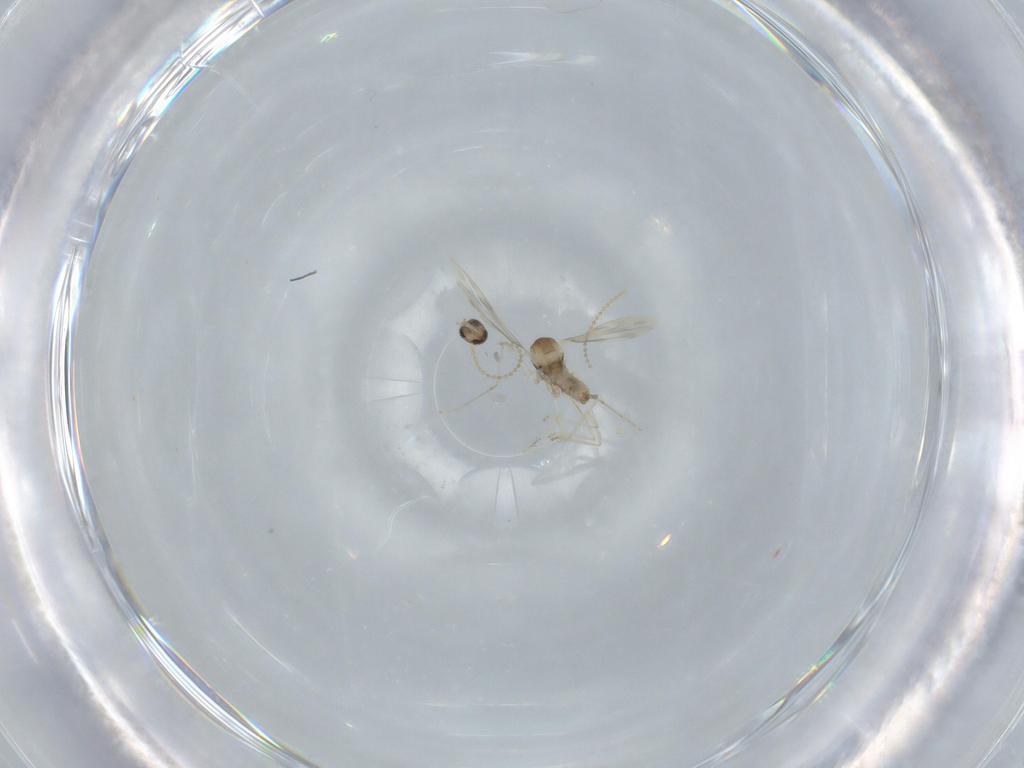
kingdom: Animalia
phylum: Arthropoda
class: Insecta
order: Diptera
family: Cecidomyiidae
